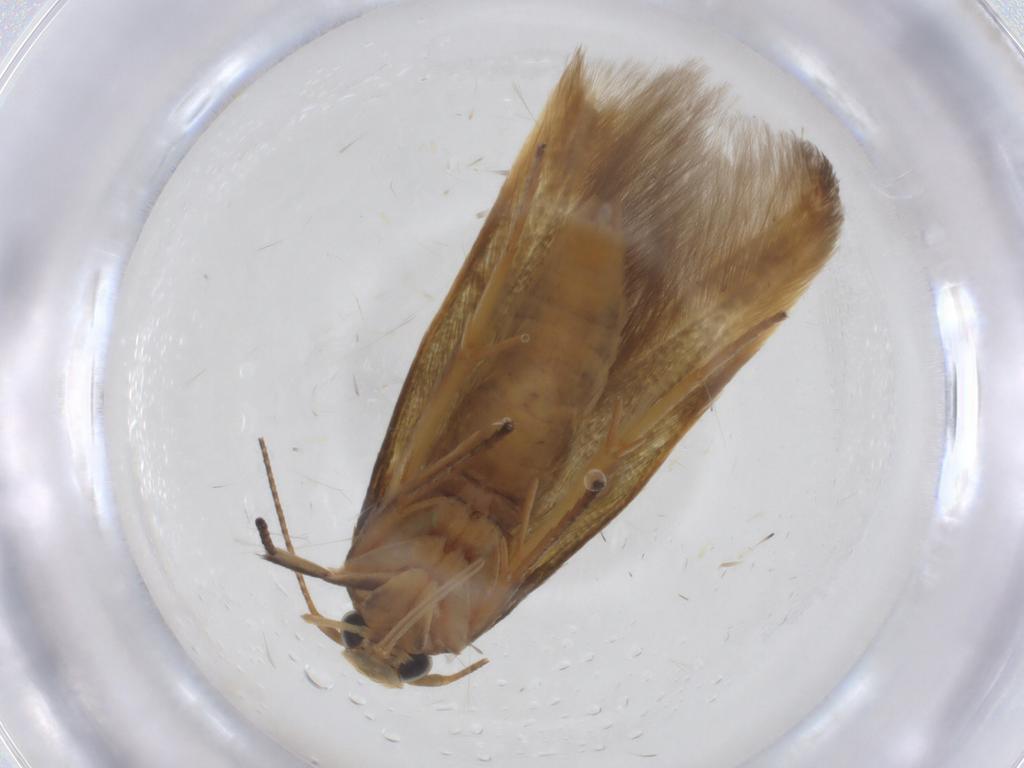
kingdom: Animalia
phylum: Arthropoda
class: Insecta
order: Lepidoptera
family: Stathmopodidae
